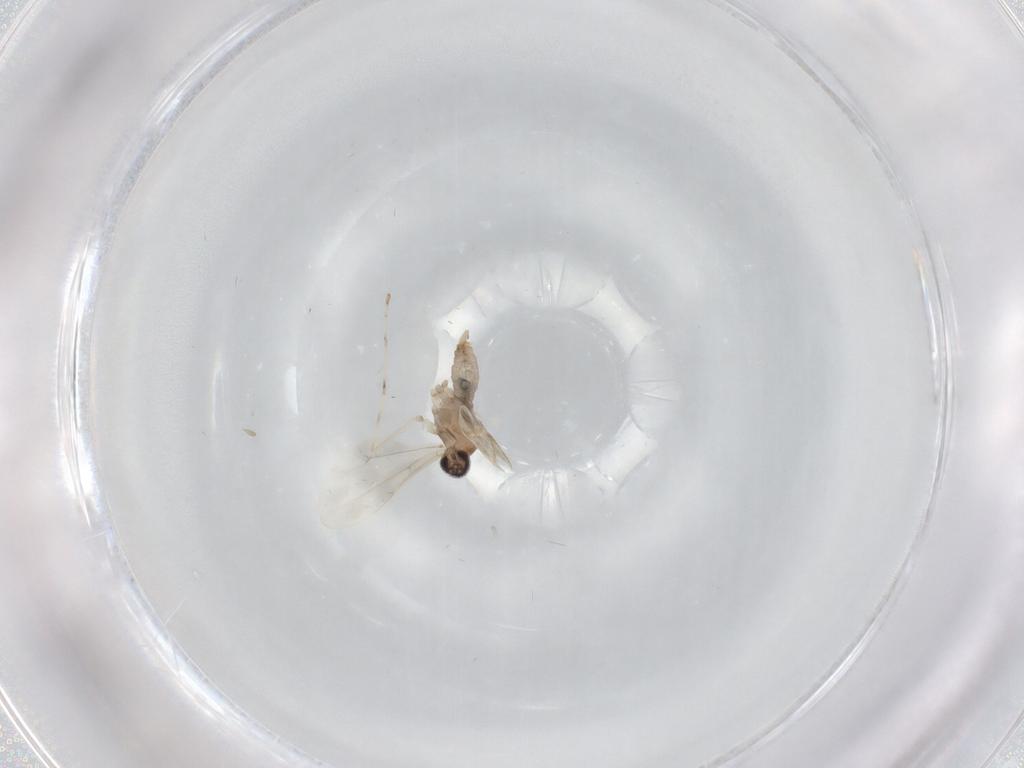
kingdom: Animalia
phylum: Arthropoda
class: Insecta
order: Diptera
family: Cecidomyiidae
